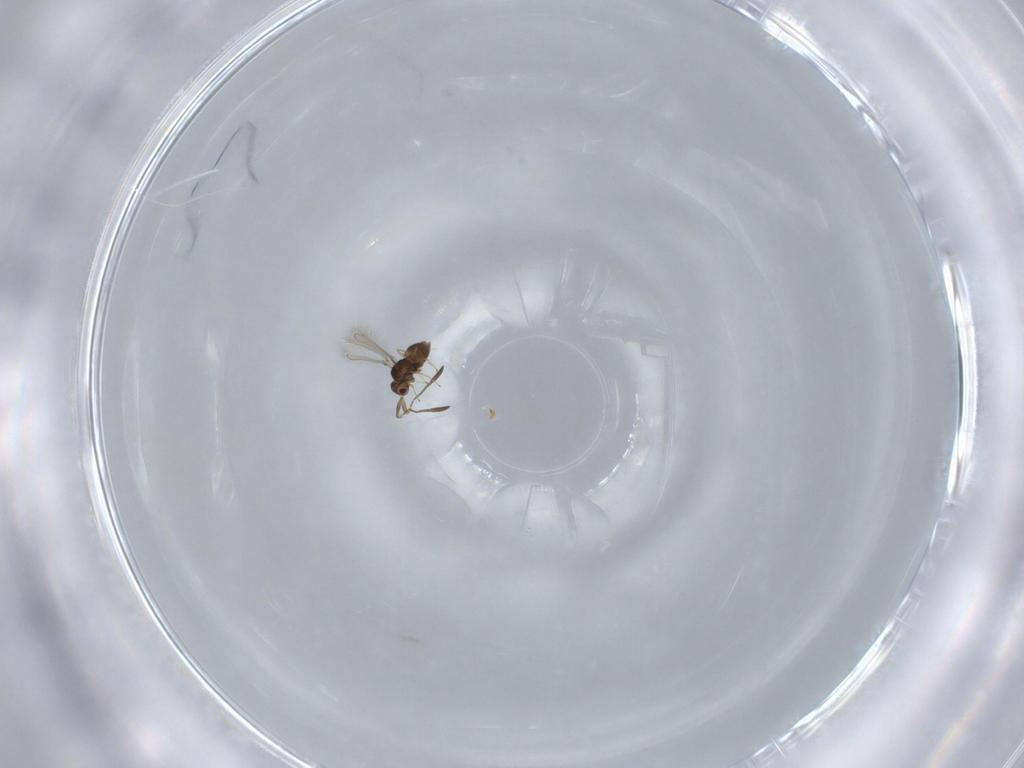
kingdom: Animalia
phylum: Arthropoda
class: Insecta
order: Hymenoptera
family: Mymaridae
